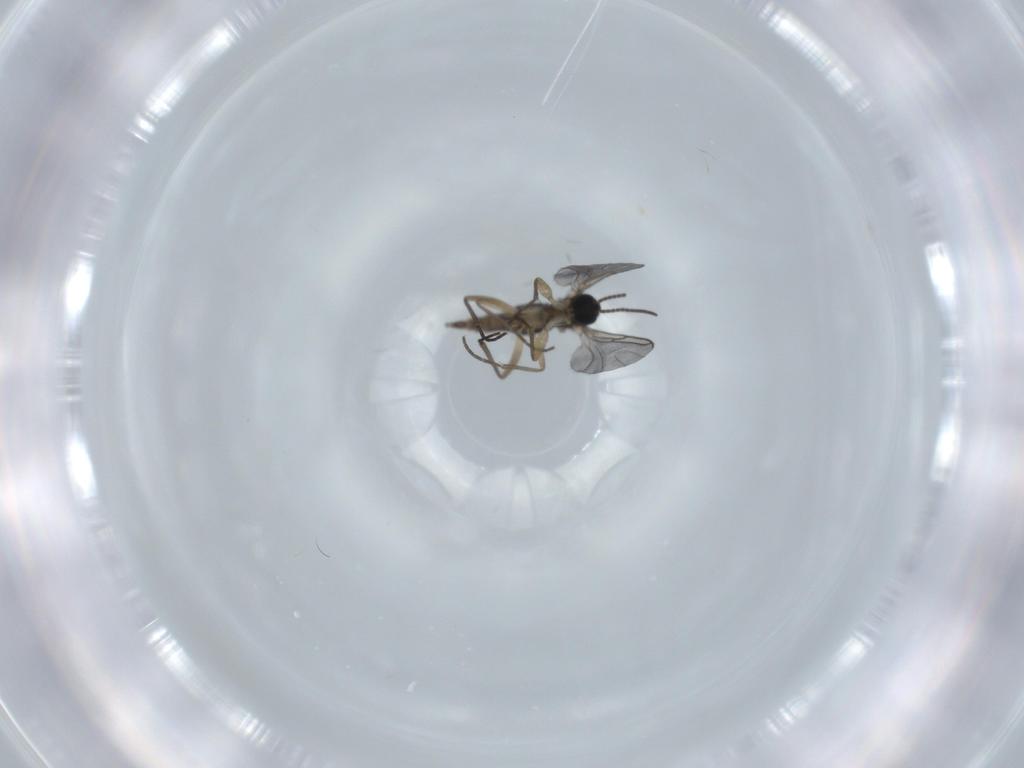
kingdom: Animalia
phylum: Arthropoda
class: Insecta
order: Diptera
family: Sciaridae
